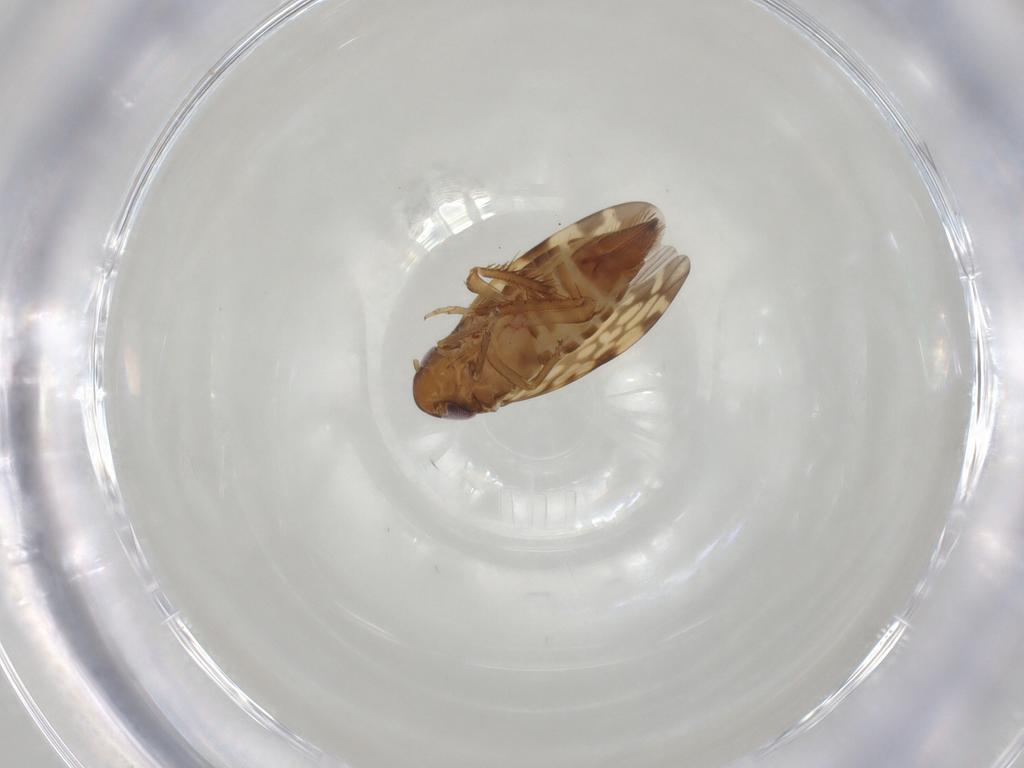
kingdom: Animalia
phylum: Arthropoda
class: Insecta
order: Hemiptera
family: Cicadellidae
